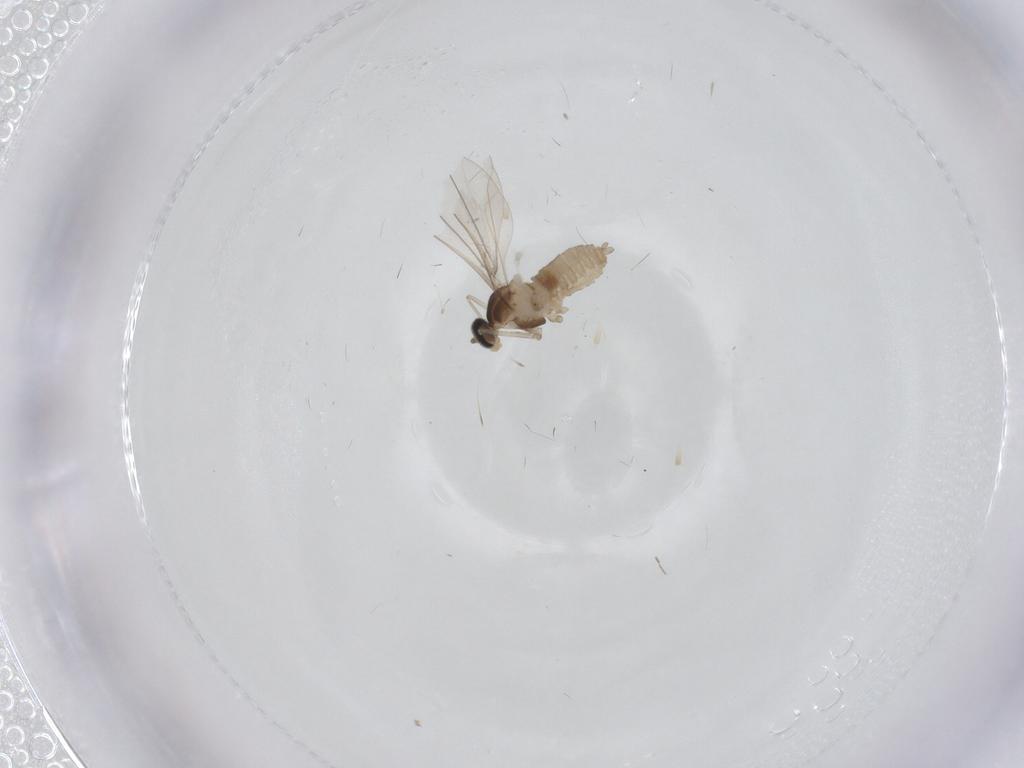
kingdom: Animalia
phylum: Arthropoda
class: Insecta
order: Diptera
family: Cecidomyiidae
